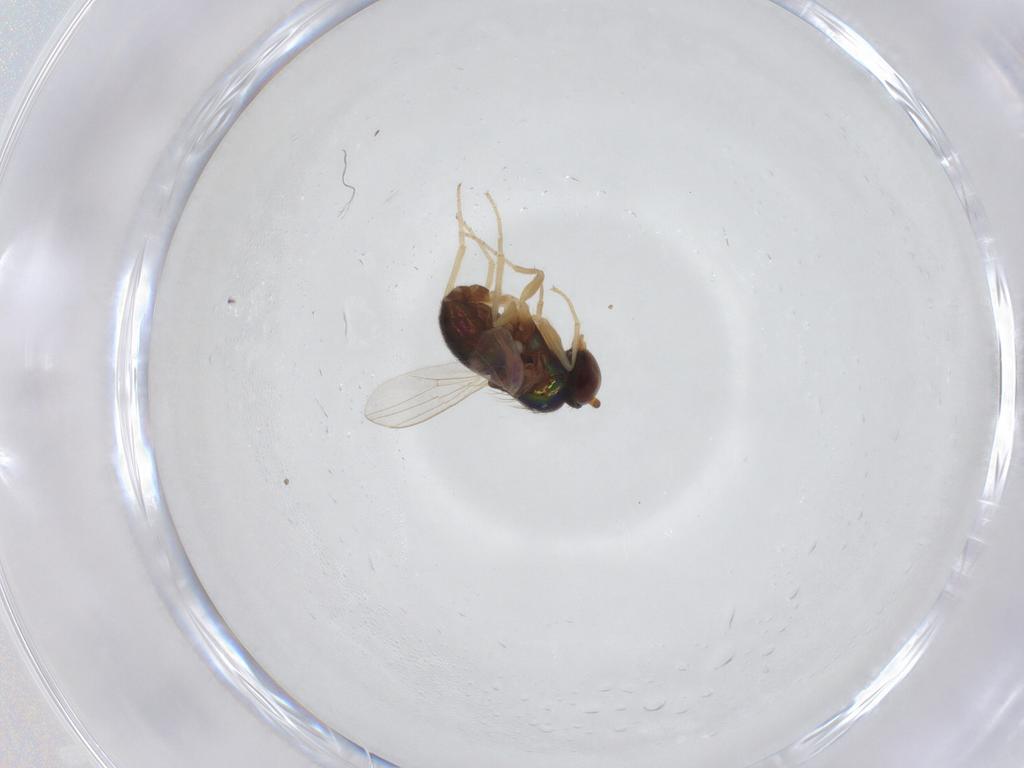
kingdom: Animalia
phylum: Arthropoda
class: Insecta
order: Diptera
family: Dolichopodidae
